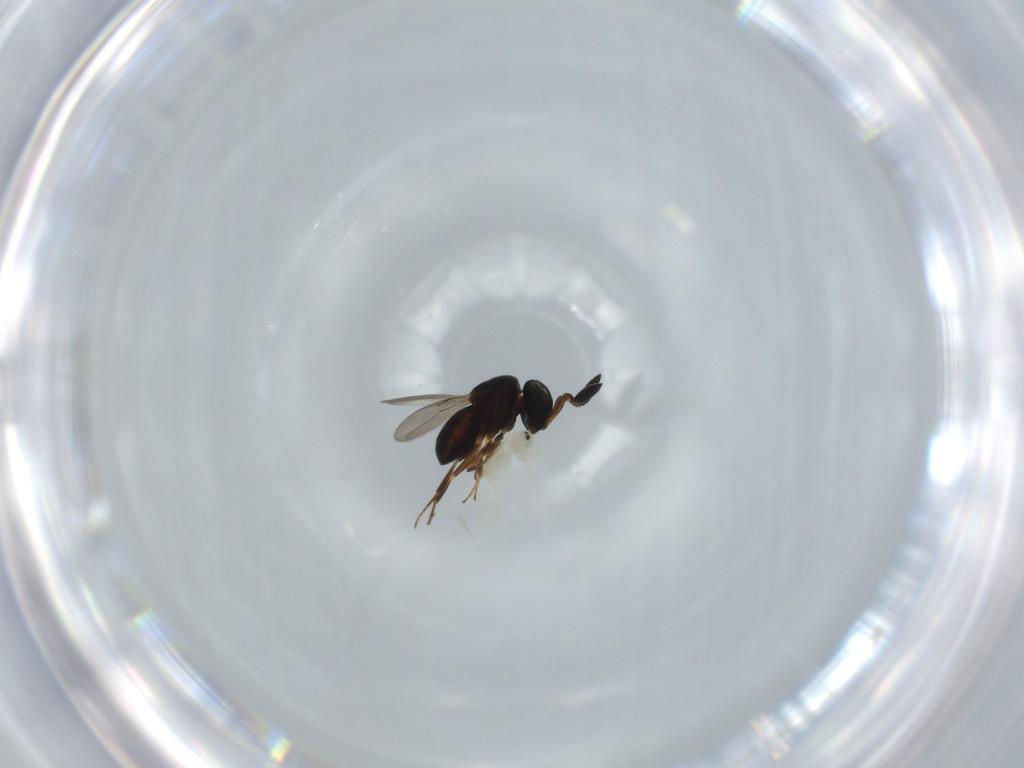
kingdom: Animalia
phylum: Arthropoda
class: Insecta
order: Hymenoptera
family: Scelionidae
